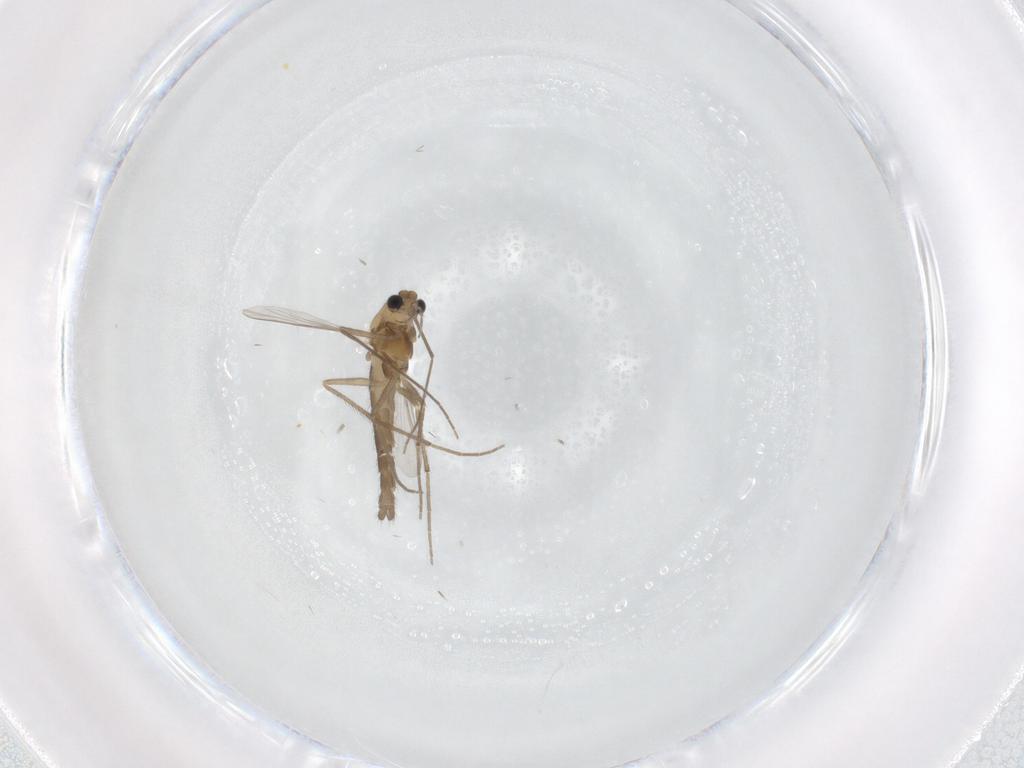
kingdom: Animalia
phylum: Arthropoda
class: Insecta
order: Diptera
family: Chironomidae
